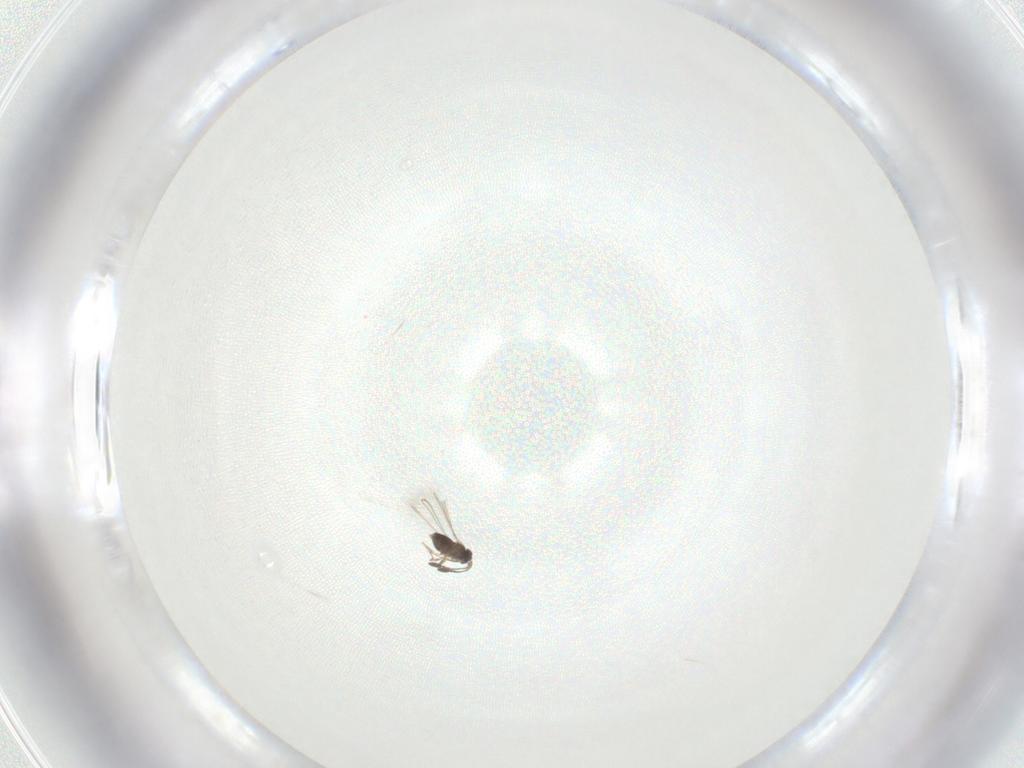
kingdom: Animalia
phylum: Arthropoda
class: Insecta
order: Hymenoptera
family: Mymaridae
